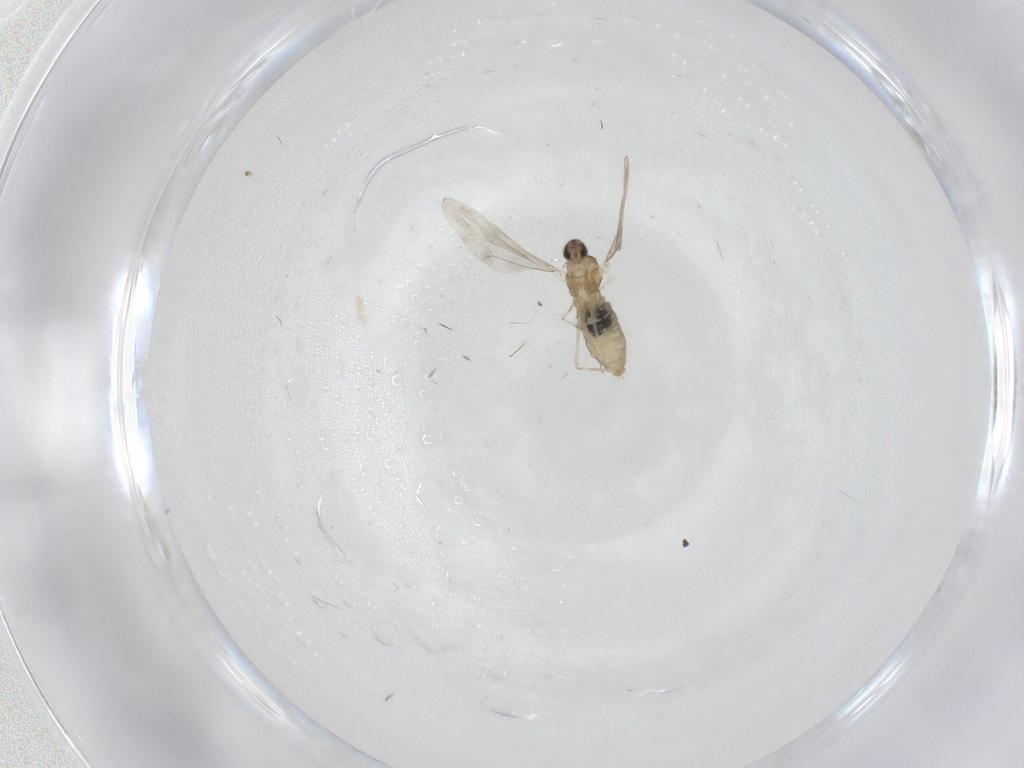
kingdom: Animalia
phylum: Arthropoda
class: Insecta
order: Diptera
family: Cecidomyiidae
